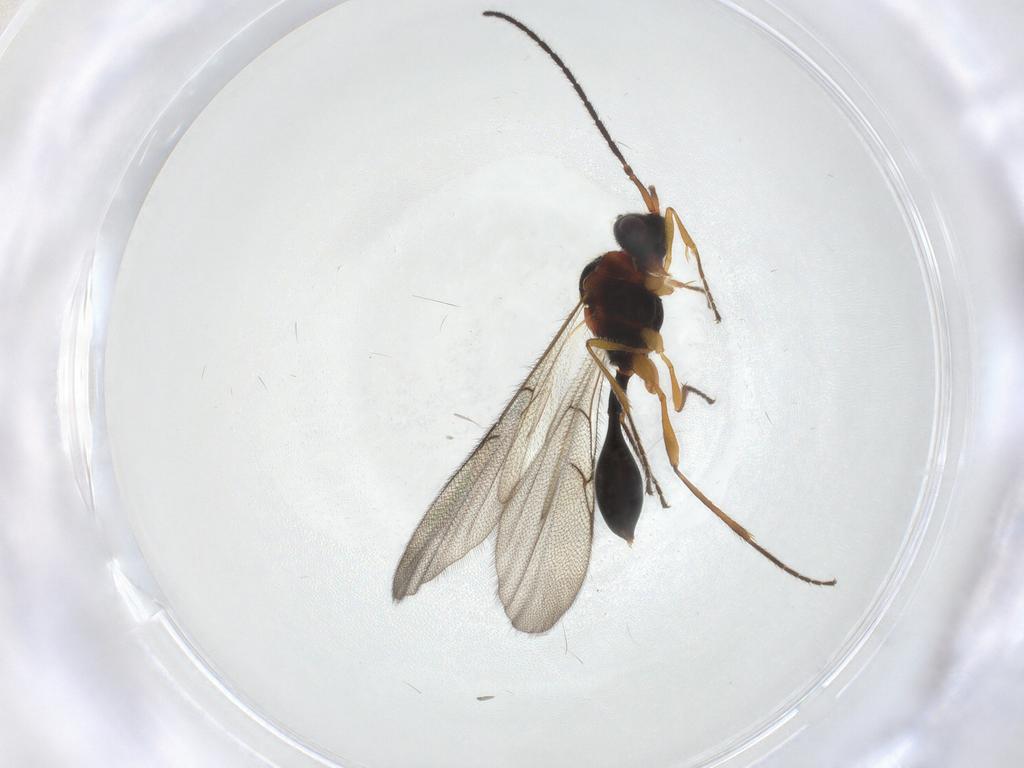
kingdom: Animalia
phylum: Arthropoda
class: Insecta
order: Hymenoptera
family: Diapriidae
